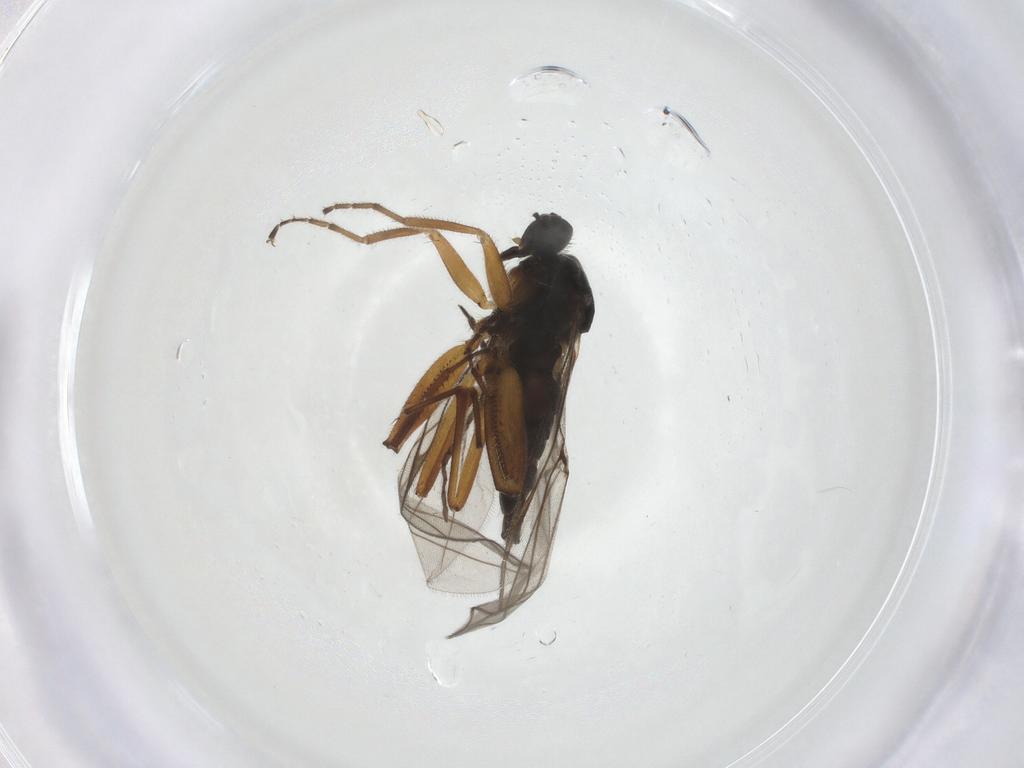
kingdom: Animalia
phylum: Arthropoda
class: Insecta
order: Diptera
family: Hybotidae
